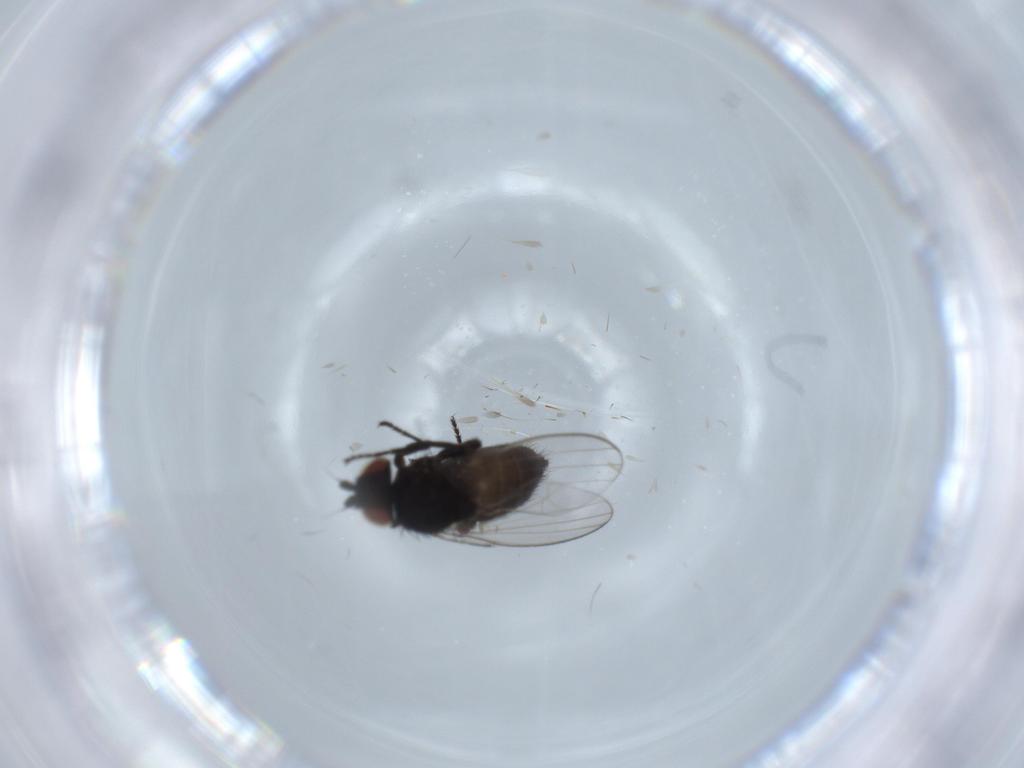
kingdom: Animalia
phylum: Arthropoda
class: Insecta
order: Diptera
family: Milichiidae
